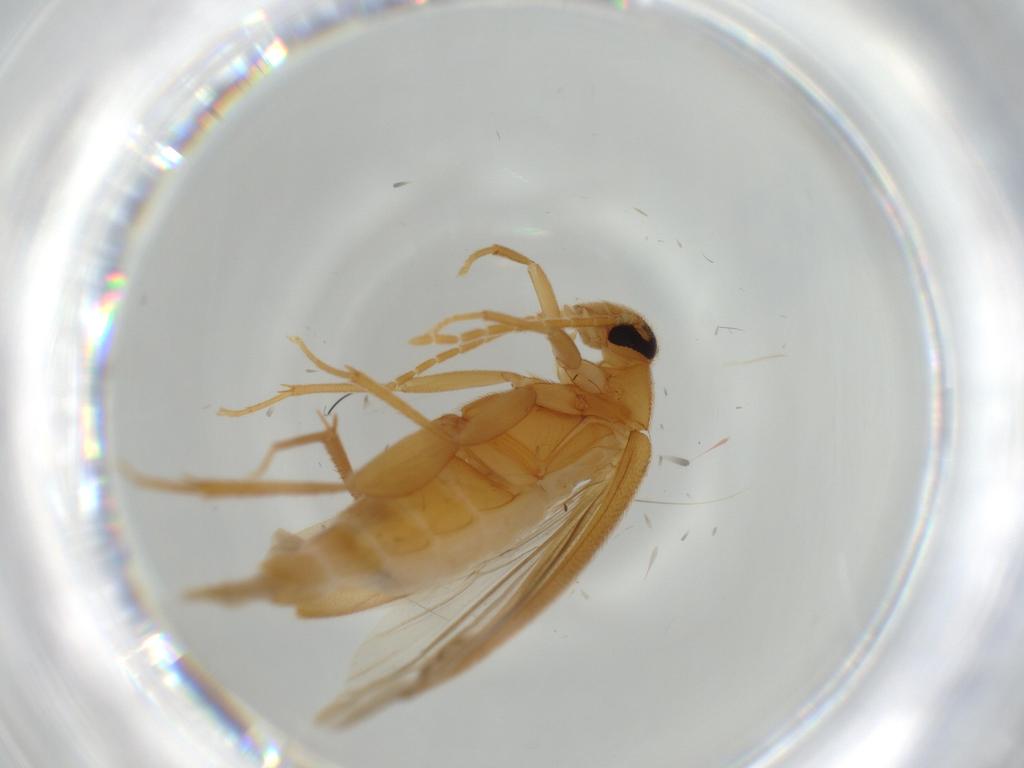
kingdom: Animalia
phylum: Arthropoda
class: Insecta
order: Coleoptera
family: Scraptiidae
